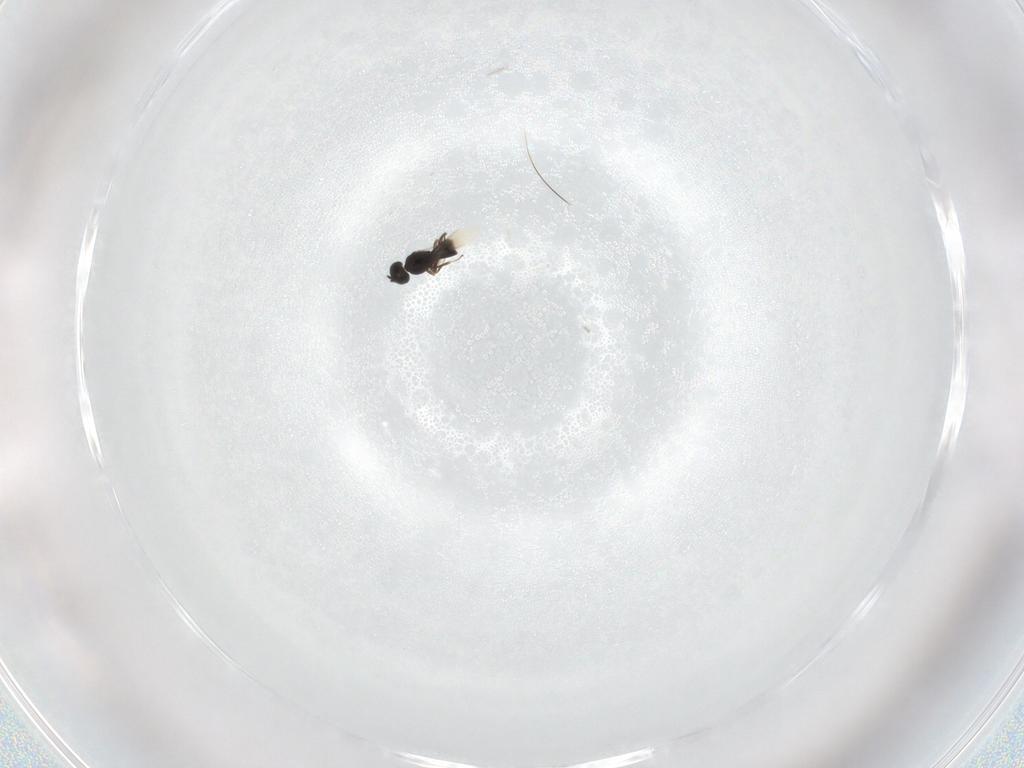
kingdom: Animalia
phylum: Arthropoda
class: Insecta
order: Hymenoptera
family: Scelionidae
